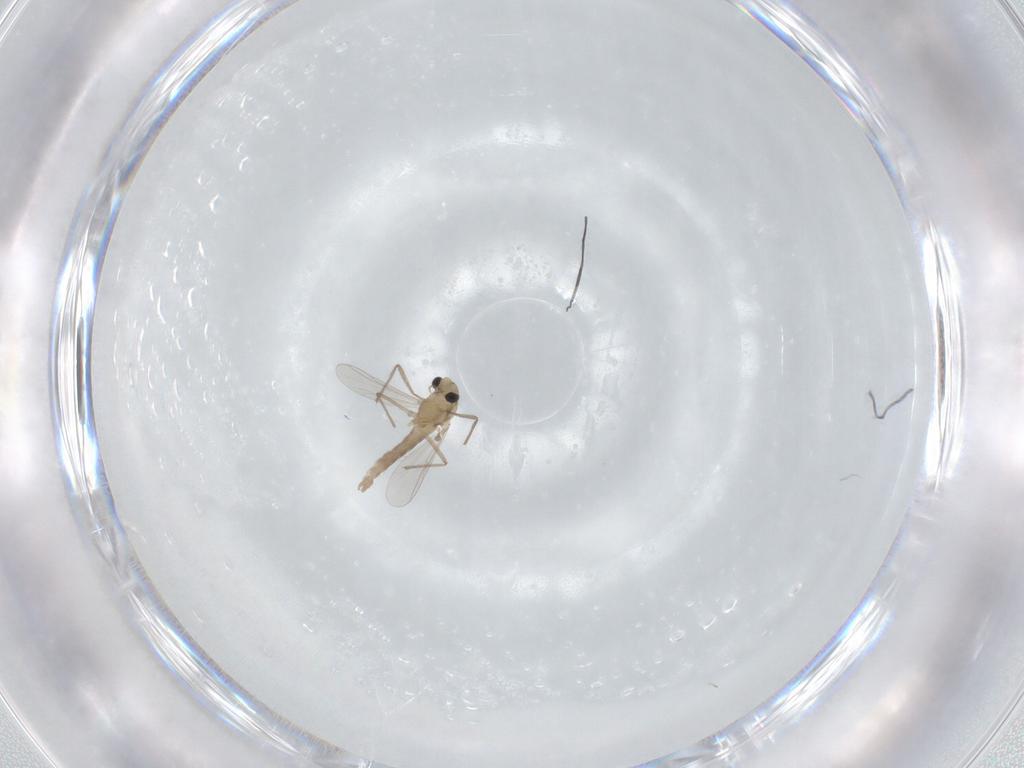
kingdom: Animalia
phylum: Arthropoda
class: Insecta
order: Diptera
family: Chironomidae
